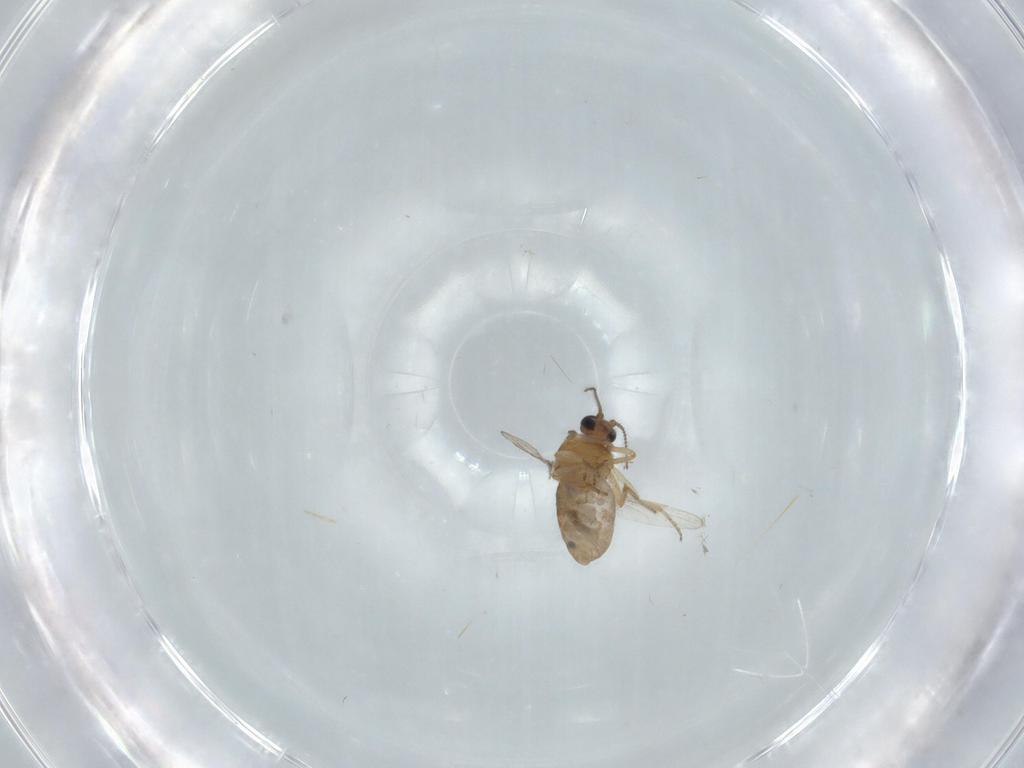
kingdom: Animalia
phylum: Arthropoda
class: Insecta
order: Diptera
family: Ceratopogonidae
